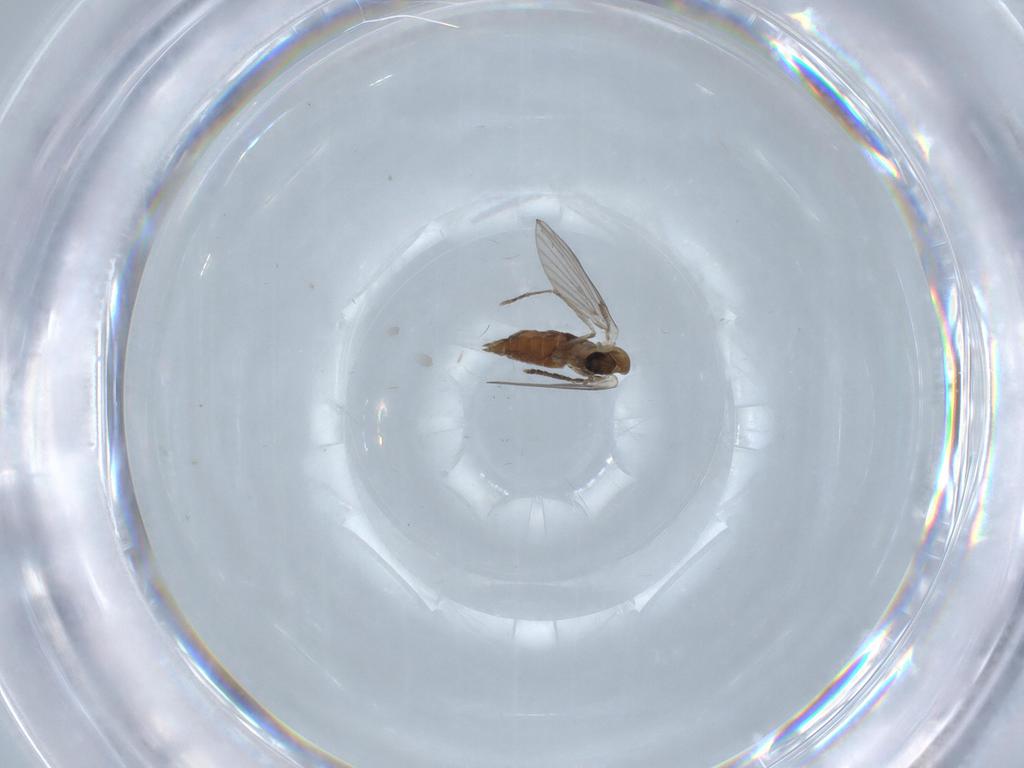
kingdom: Animalia
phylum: Arthropoda
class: Insecta
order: Diptera
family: Cecidomyiidae
